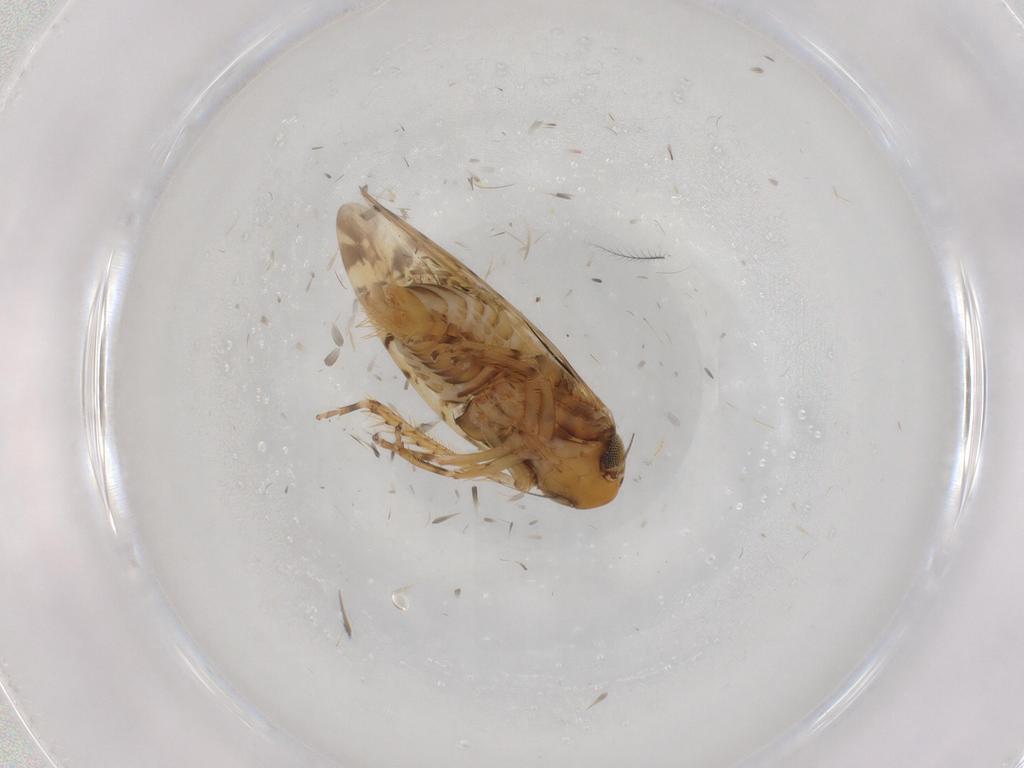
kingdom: Animalia
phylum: Arthropoda
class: Insecta
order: Hemiptera
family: Cicadellidae
